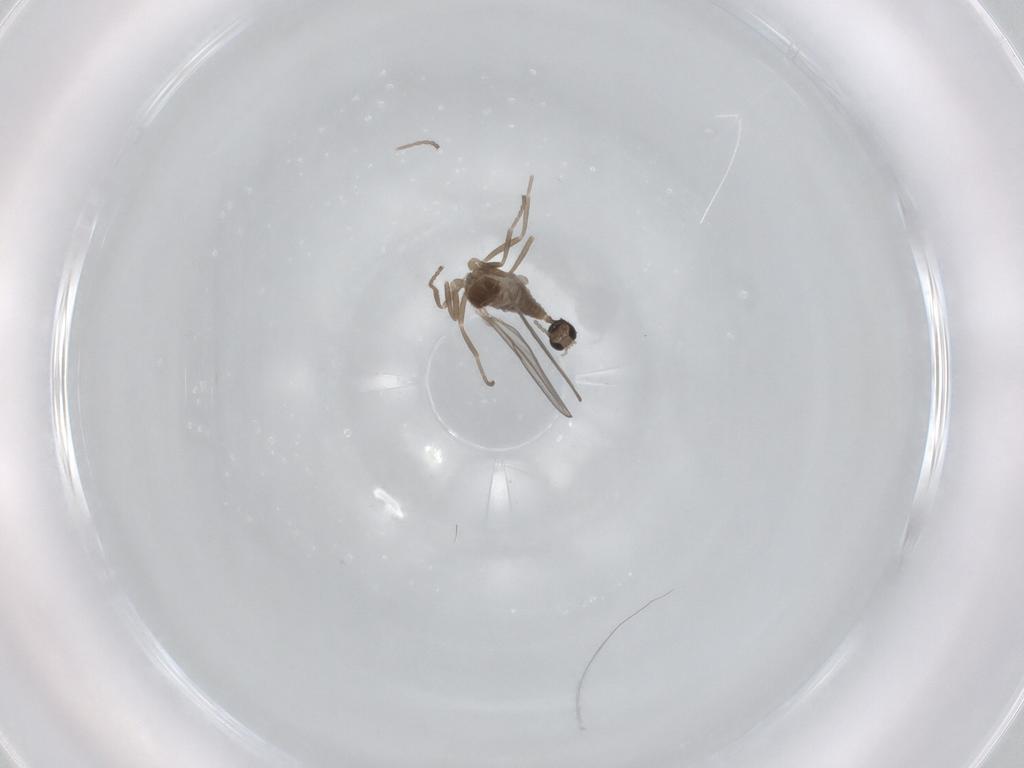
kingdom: Animalia
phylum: Arthropoda
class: Insecta
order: Diptera
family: Cecidomyiidae
